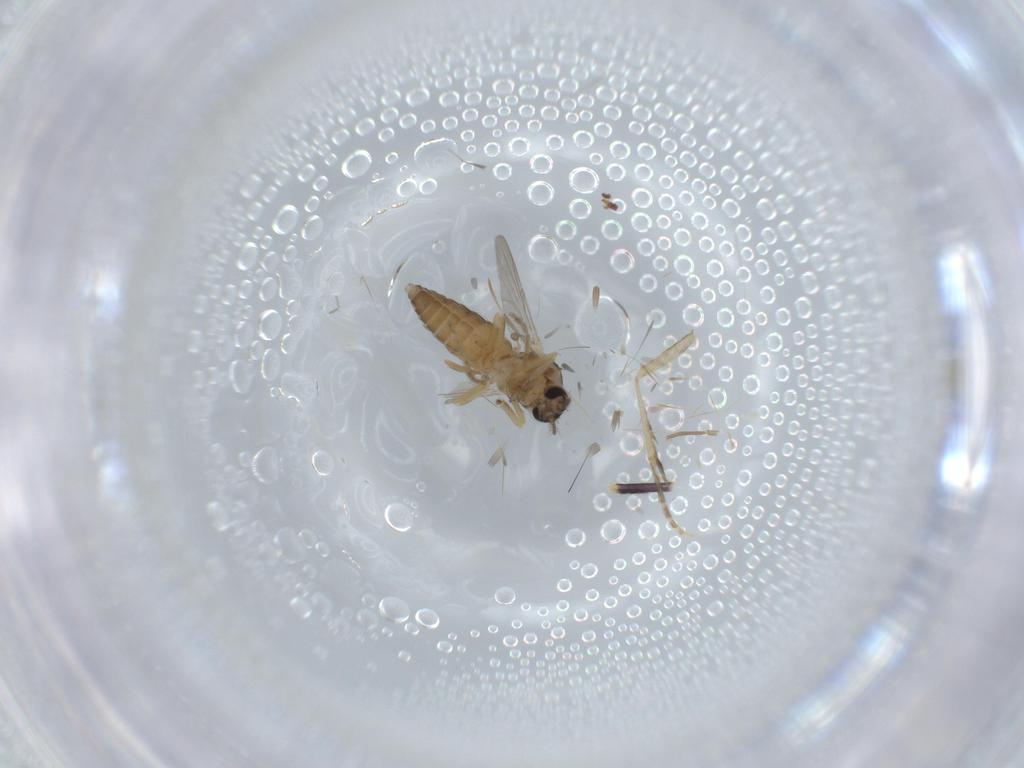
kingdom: Animalia
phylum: Arthropoda
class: Insecta
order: Diptera
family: Ceratopogonidae
